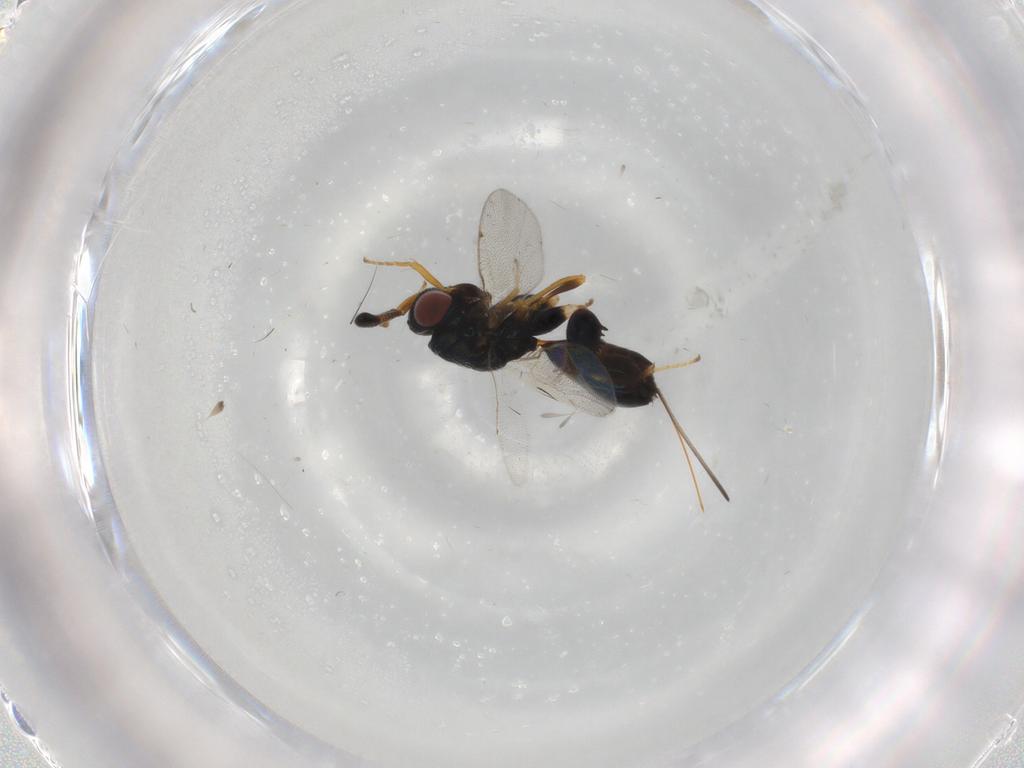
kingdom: Animalia
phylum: Arthropoda
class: Insecta
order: Hymenoptera
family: Torymidae
